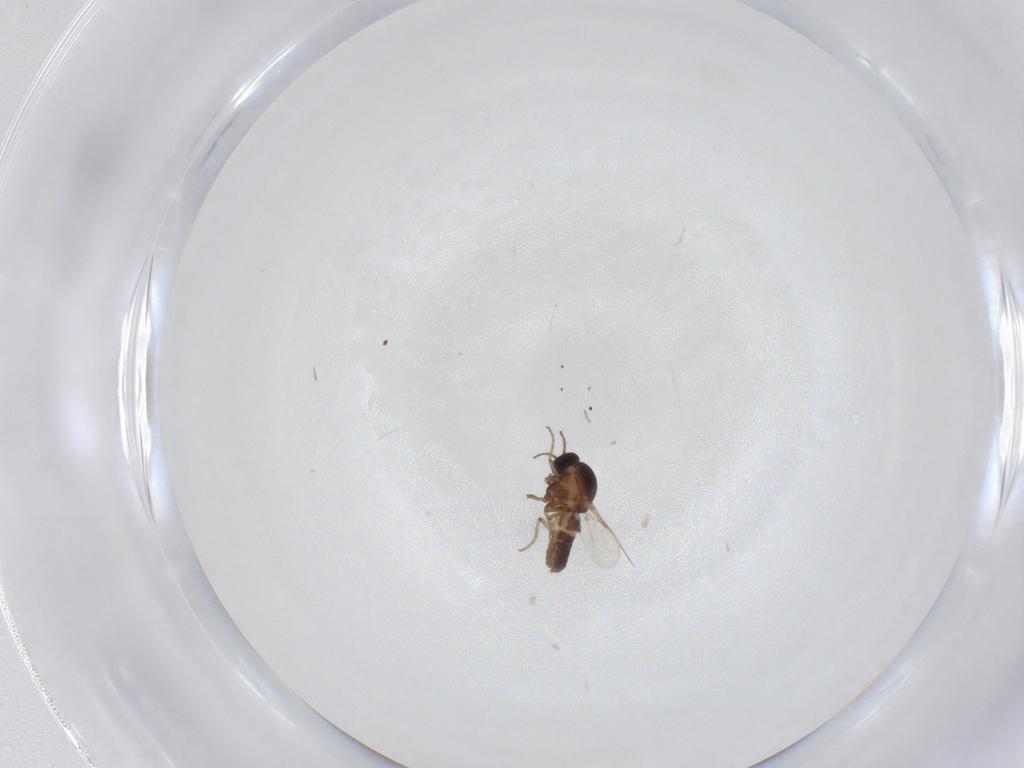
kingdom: Animalia
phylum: Arthropoda
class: Insecta
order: Diptera
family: Ceratopogonidae
